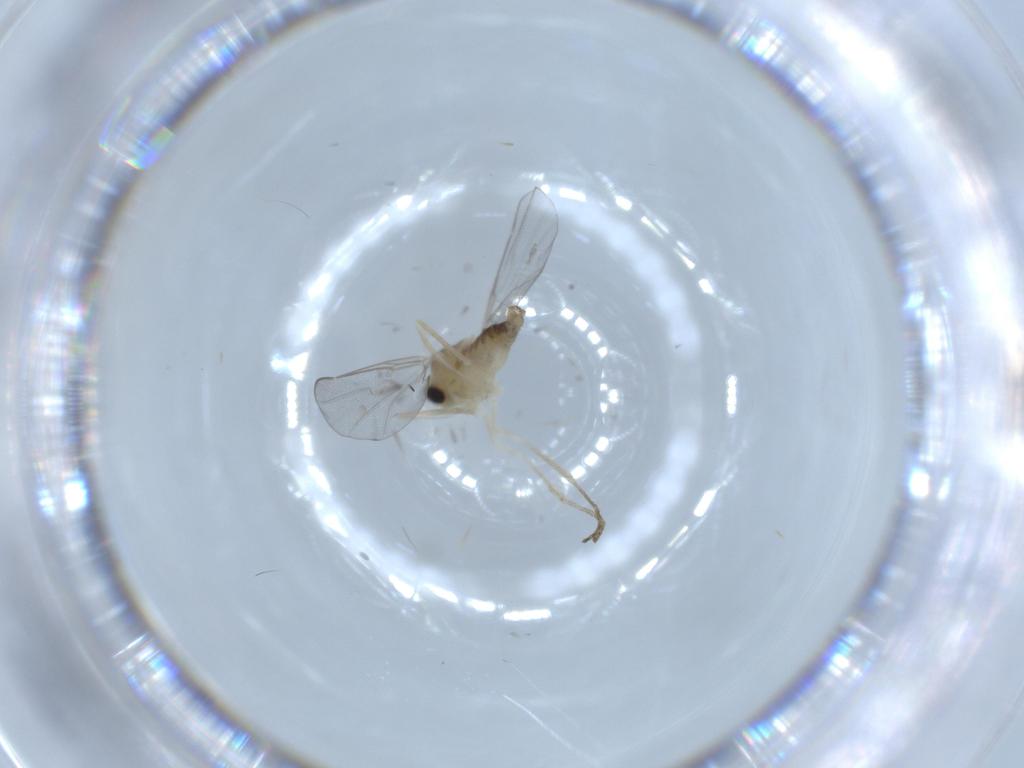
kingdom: Animalia
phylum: Arthropoda
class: Insecta
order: Diptera
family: Cecidomyiidae
